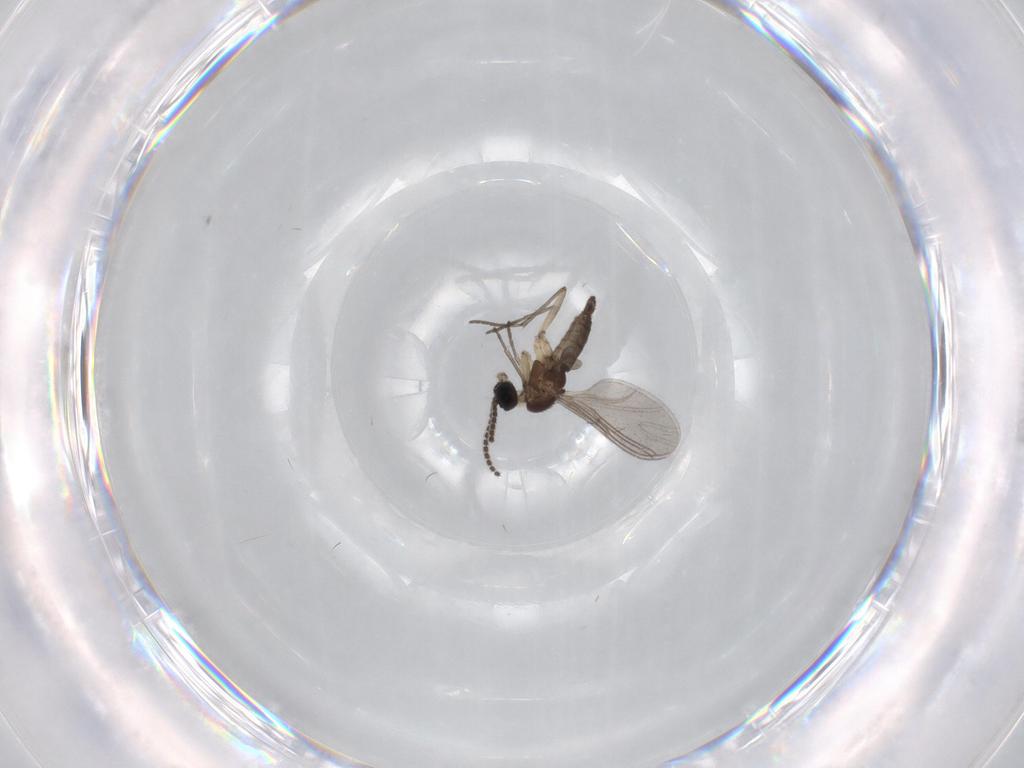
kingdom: Animalia
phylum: Arthropoda
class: Insecta
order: Diptera
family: Sciaridae
